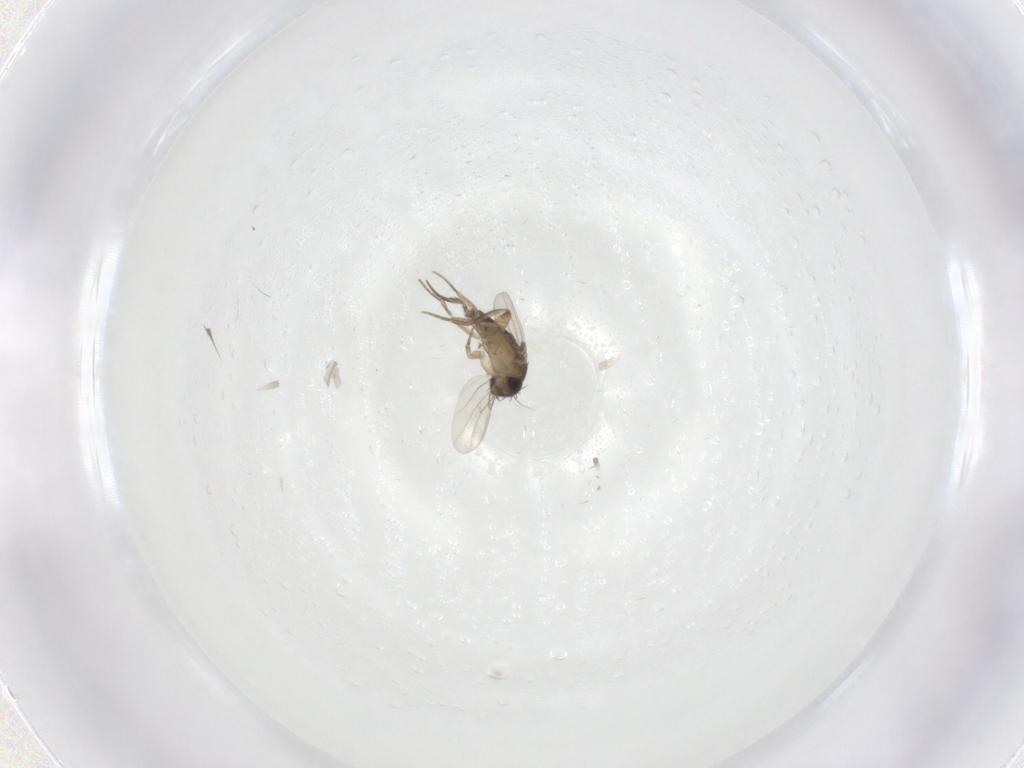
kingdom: Animalia
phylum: Arthropoda
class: Insecta
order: Diptera
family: Phoridae
